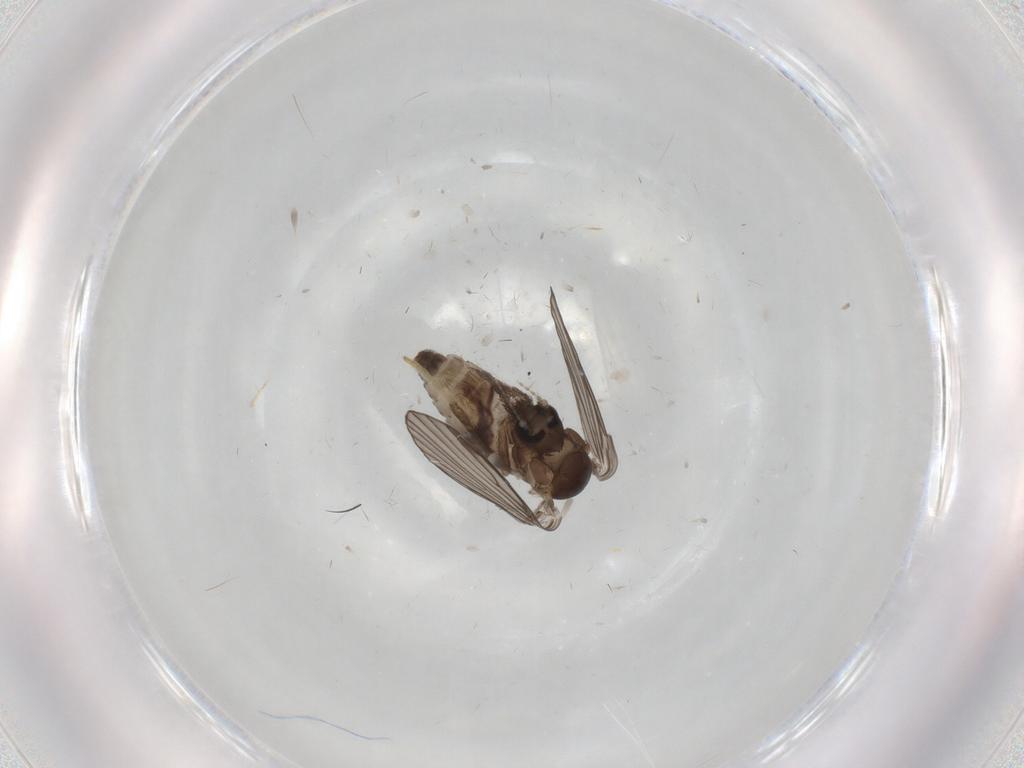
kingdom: Animalia
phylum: Arthropoda
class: Insecta
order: Diptera
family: Psychodidae
